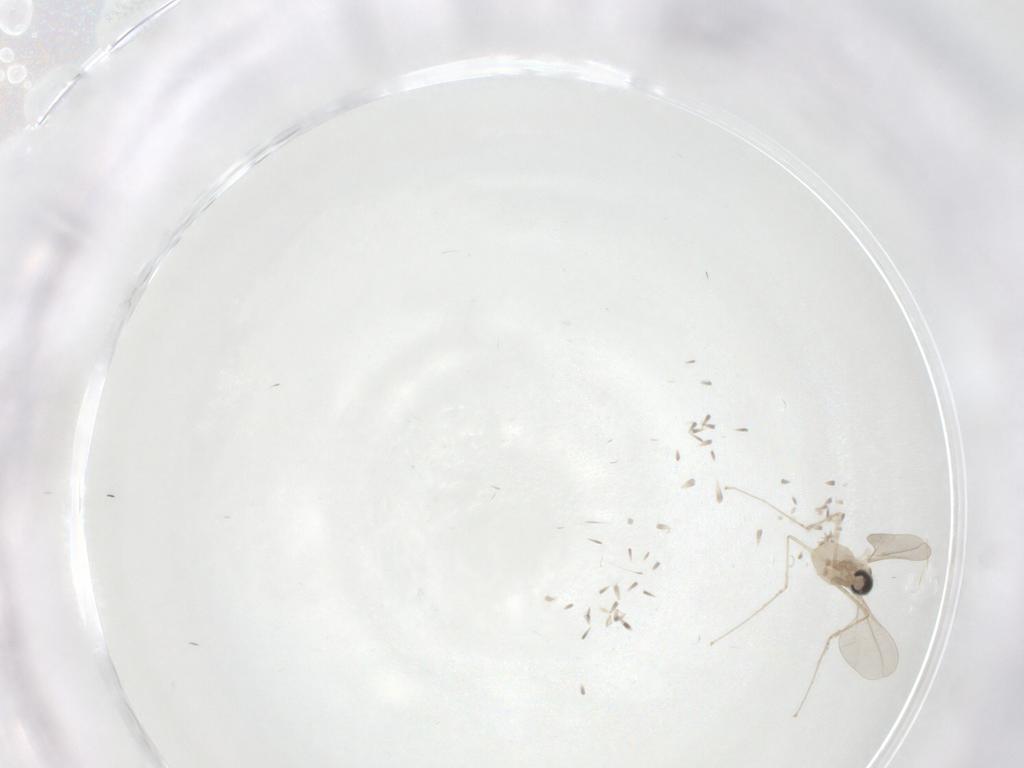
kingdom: Animalia
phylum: Arthropoda
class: Insecta
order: Diptera
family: Cecidomyiidae
